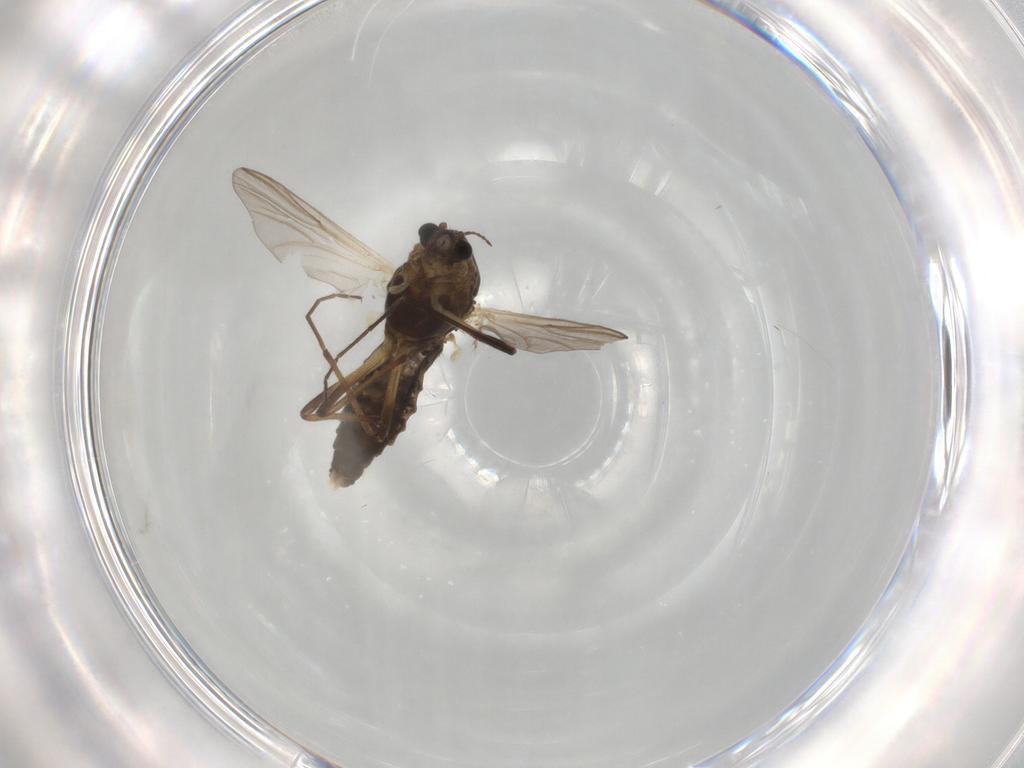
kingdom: Animalia
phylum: Arthropoda
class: Insecta
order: Diptera
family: Chironomidae
